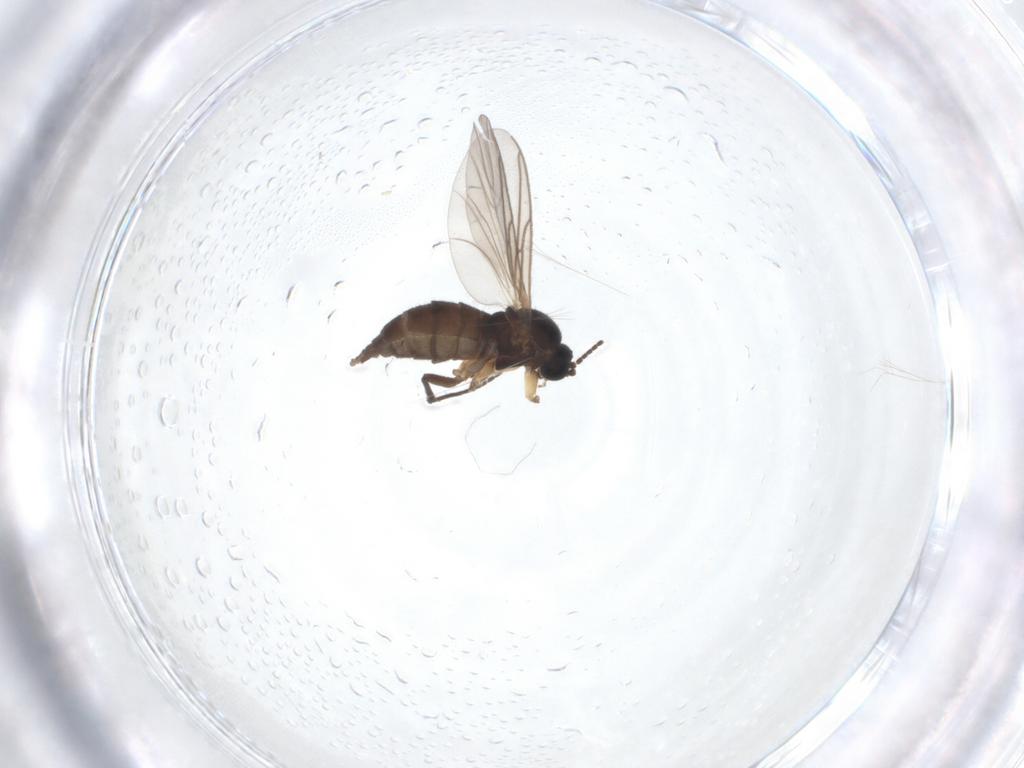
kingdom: Animalia
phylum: Arthropoda
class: Insecta
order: Diptera
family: Sciaridae
